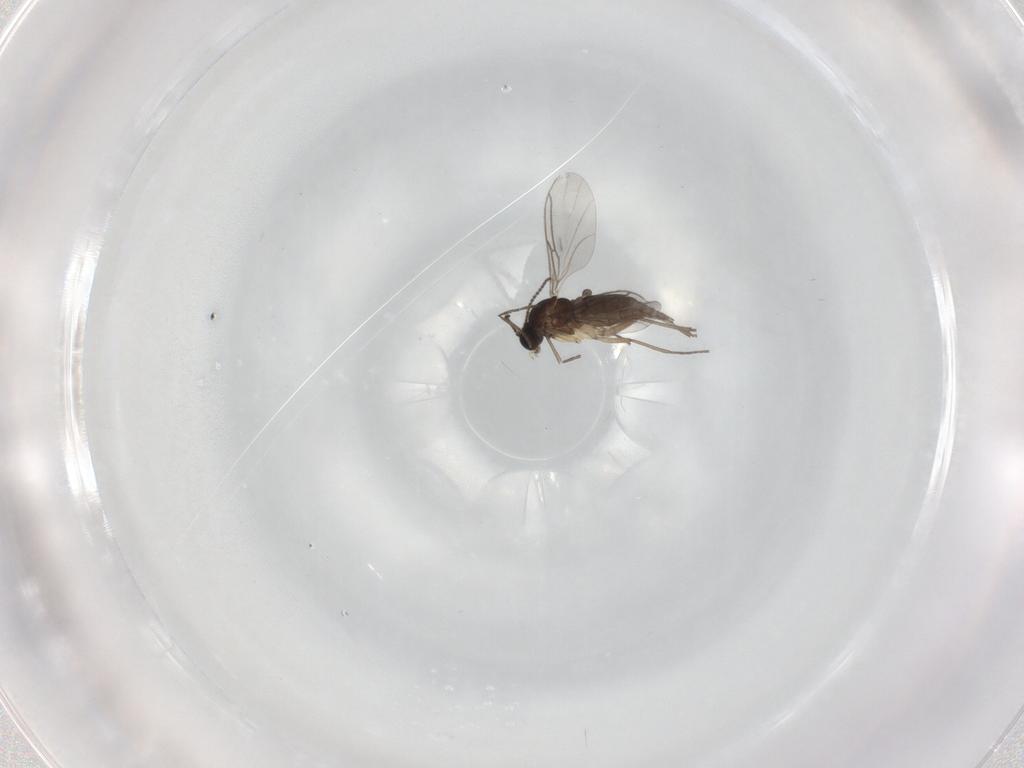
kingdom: Animalia
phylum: Arthropoda
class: Insecta
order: Diptera
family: Sciaridae
